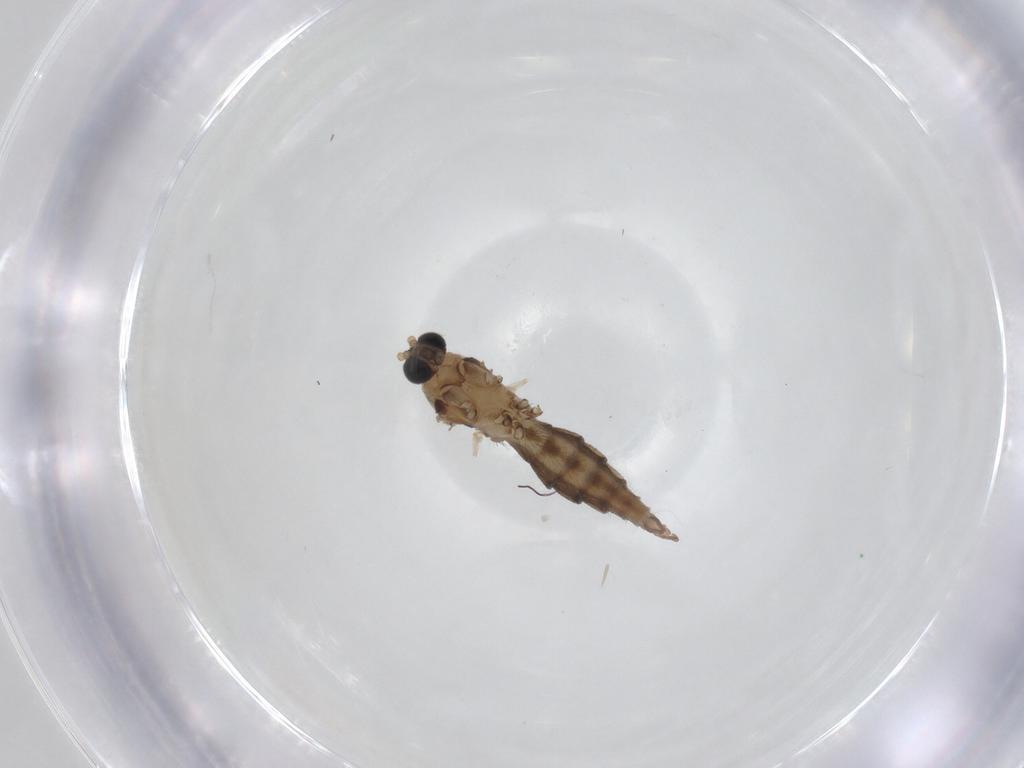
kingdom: Animalia
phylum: Arthropoda
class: Insecta
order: Diptera
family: Sciaridae
